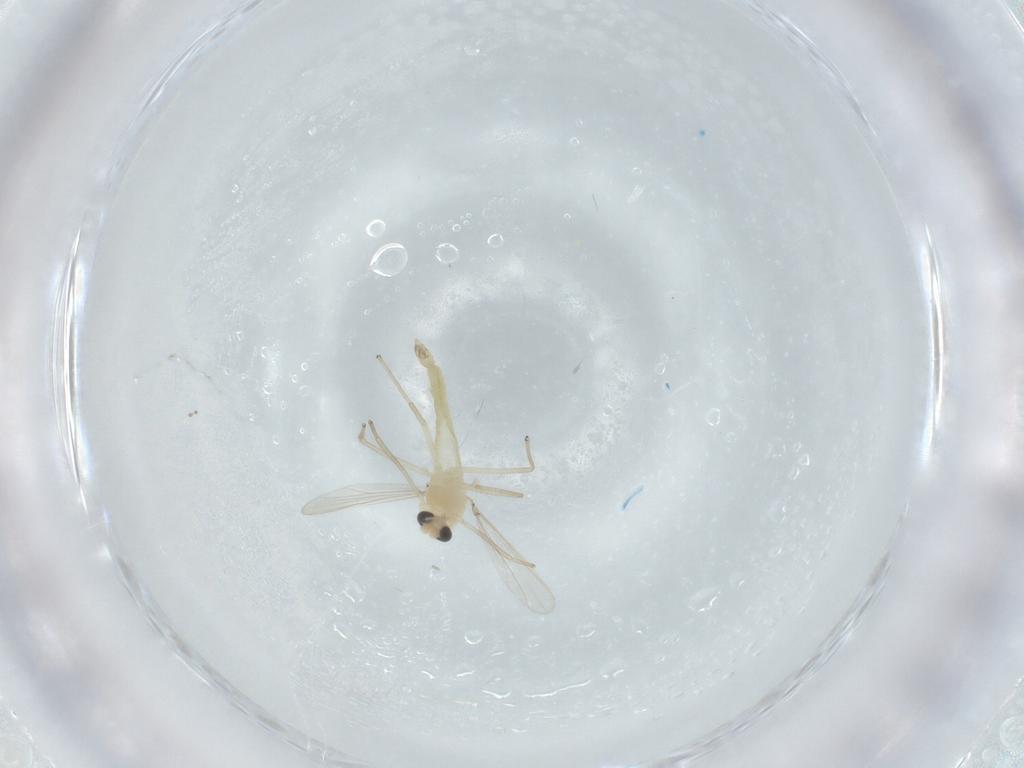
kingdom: Animalia
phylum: Arthropoda
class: Insecta
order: Diptera
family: Chironomidae
